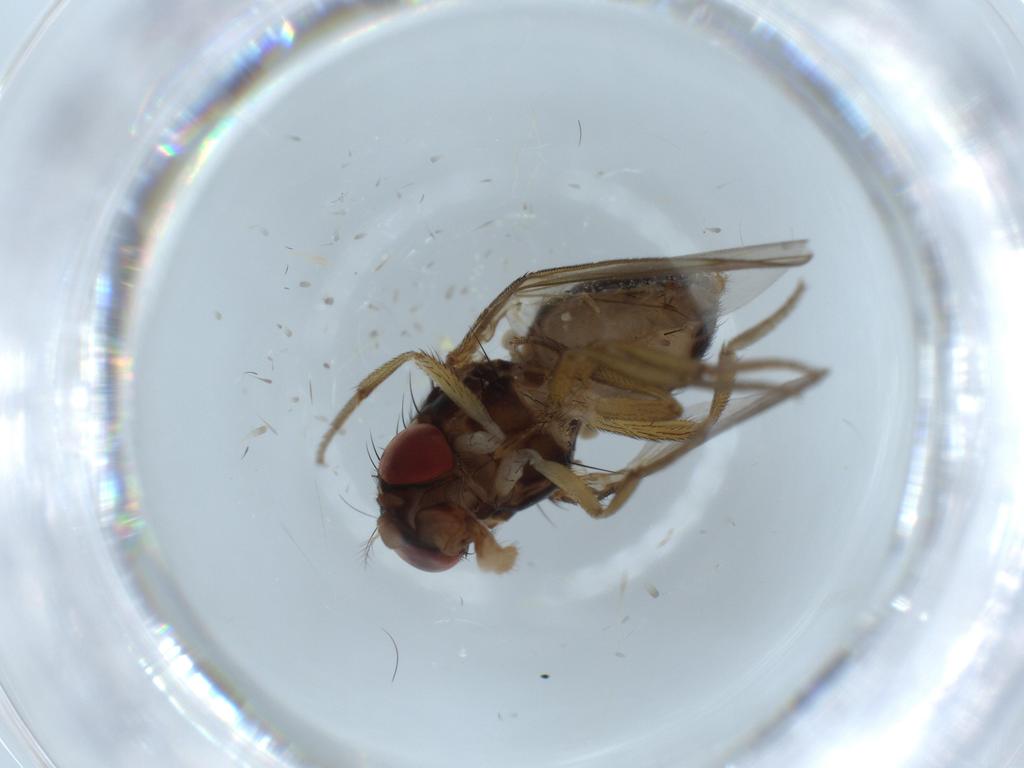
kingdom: Animalia
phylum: Arthropoda
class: Insecta
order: Diptera
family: Drosophilidae
